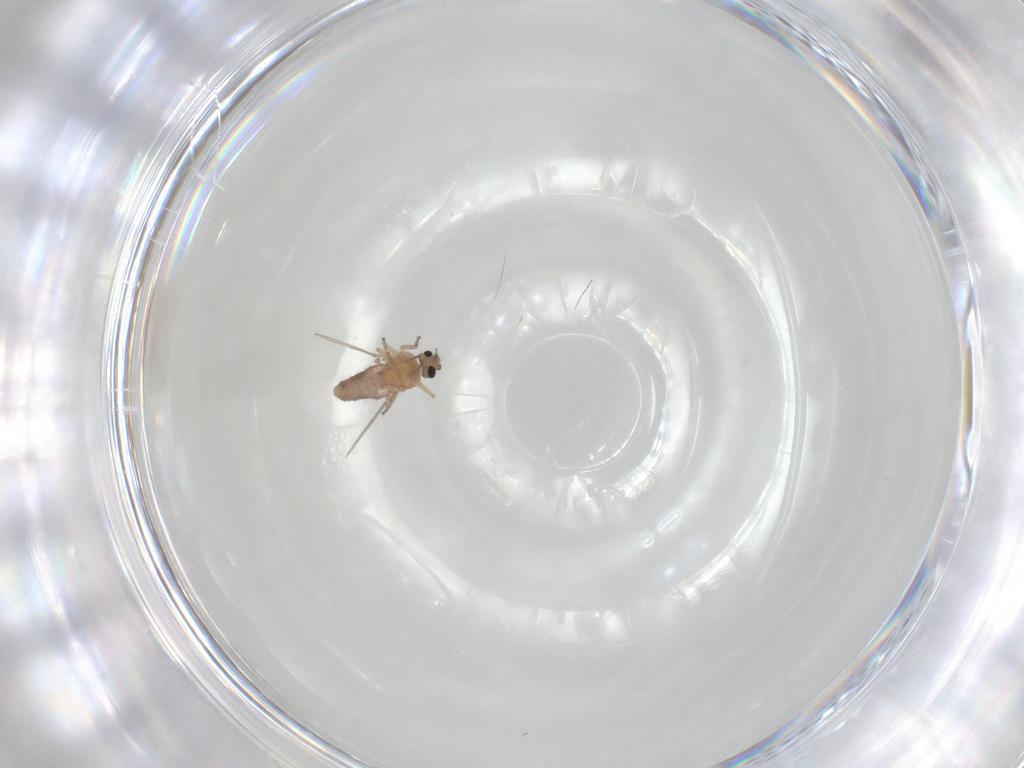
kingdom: Animalia
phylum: Arthropoda
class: Insecta
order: Diptera
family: Ceratopogonidae
